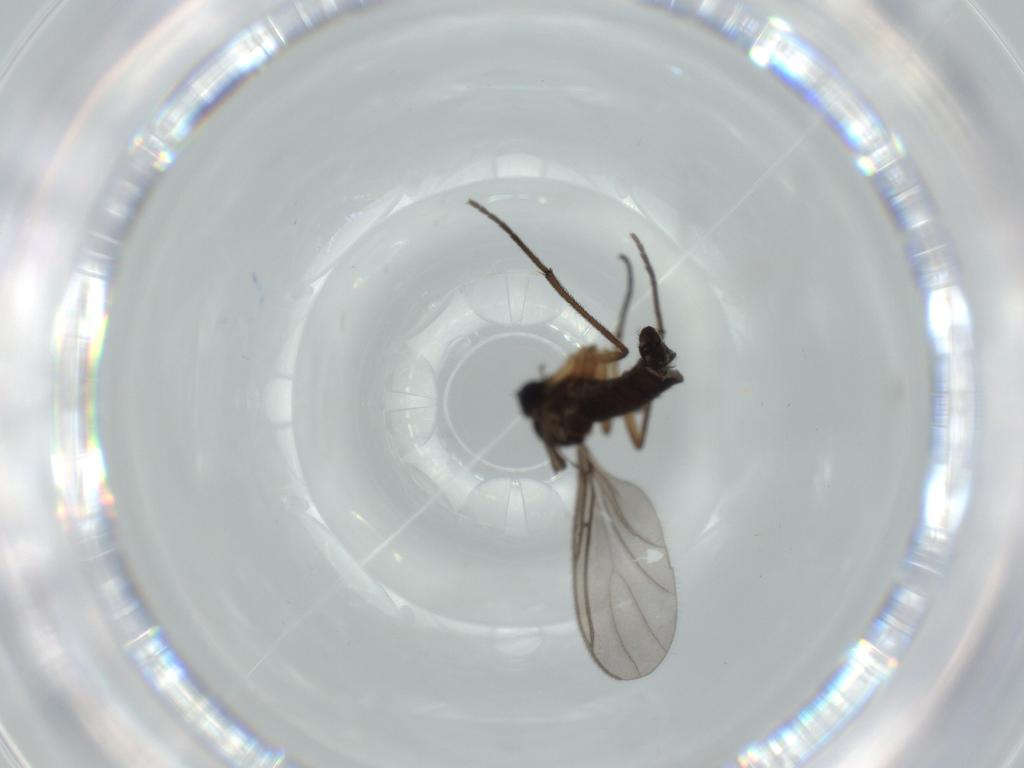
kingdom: Animalia
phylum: Arthropoda
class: Insecta
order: Diptera
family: Sciaridae
